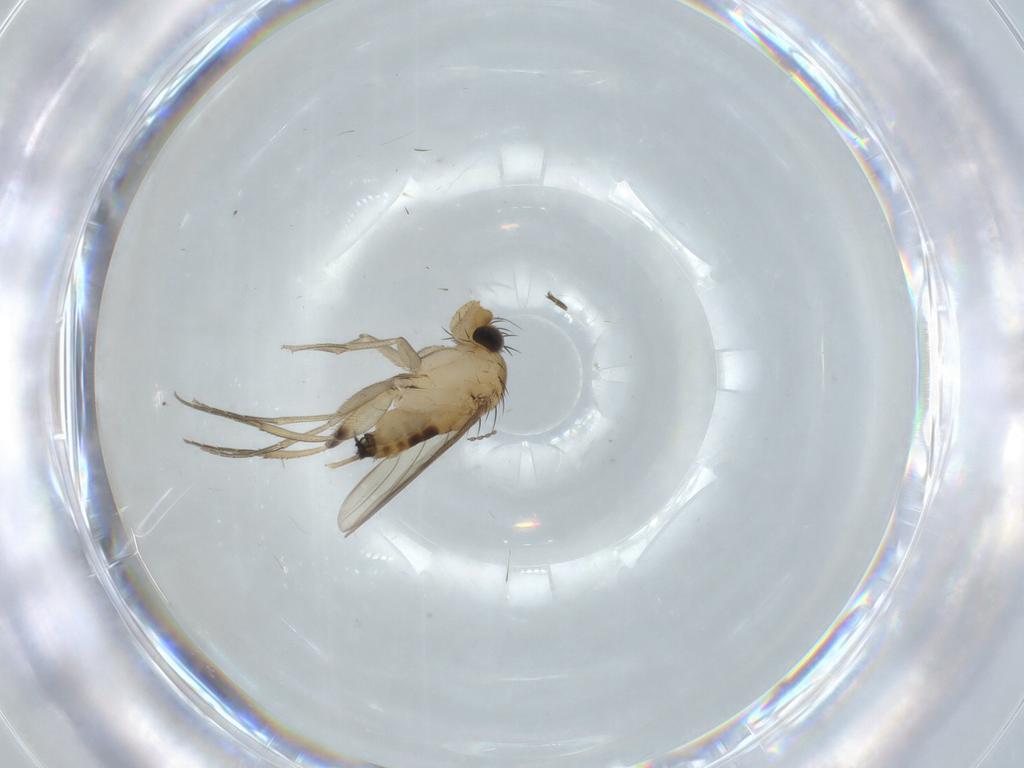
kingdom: Animalia
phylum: Arthropoda
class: Insecta
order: Diptera
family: Phoridae
